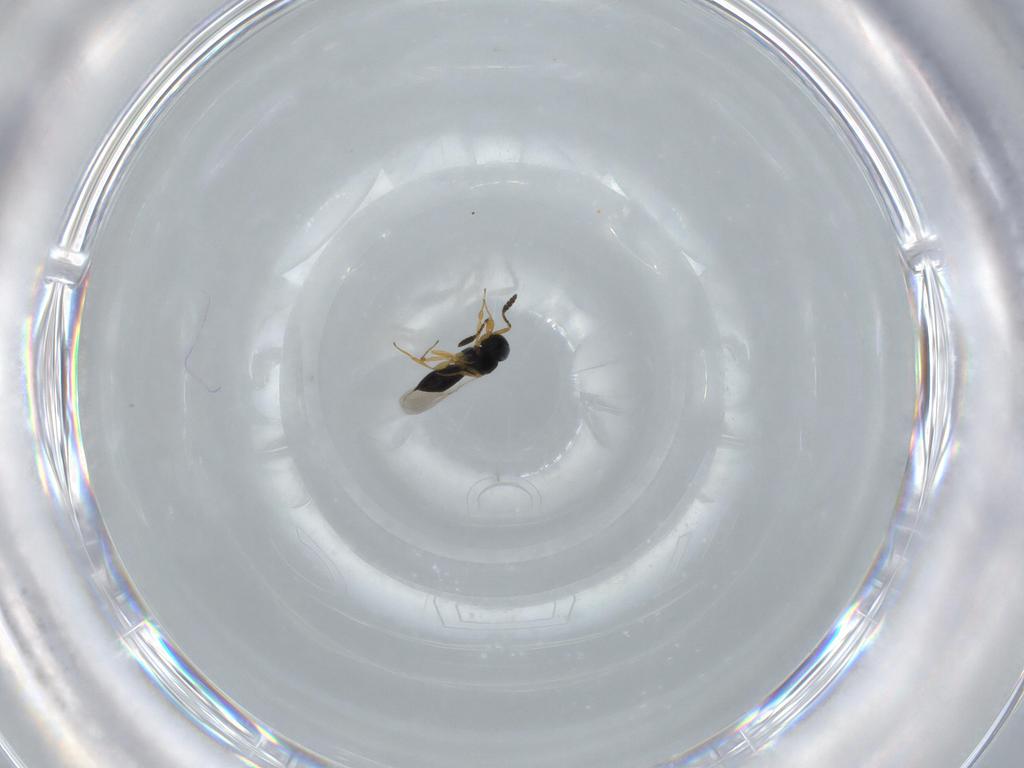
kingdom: Animalia
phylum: Arthropoda
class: Insecta
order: Hymenoptera
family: Scelionidae
